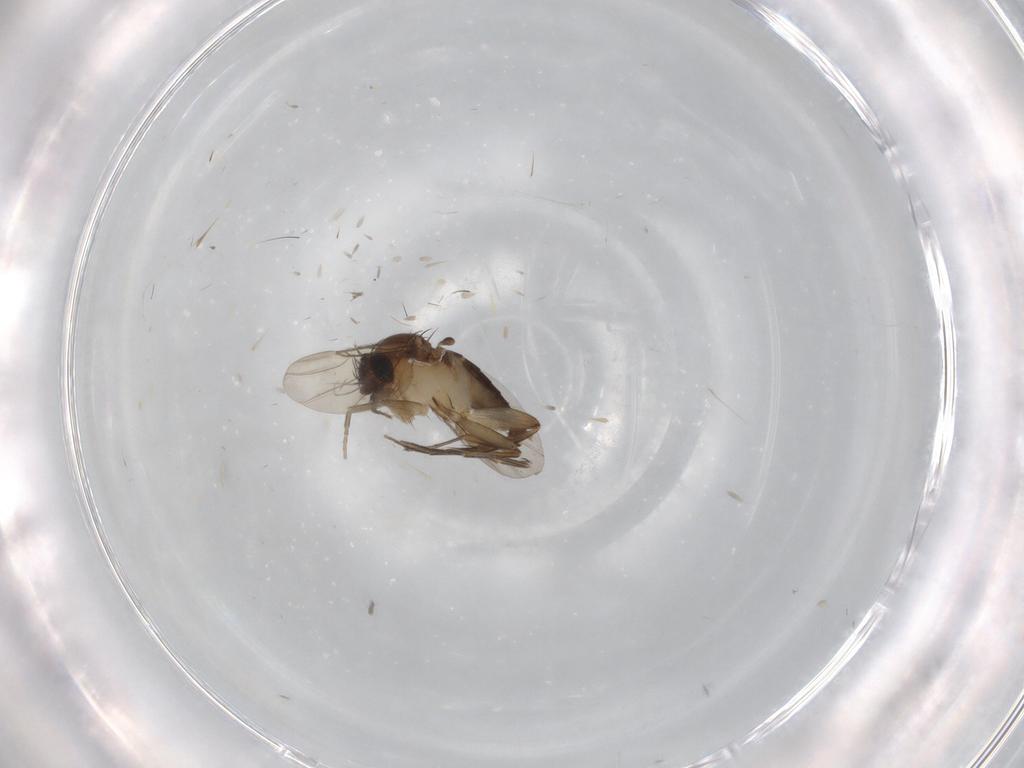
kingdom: Animalia
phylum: Arthropoda
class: Insecta
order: Diptera
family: Phoridae
